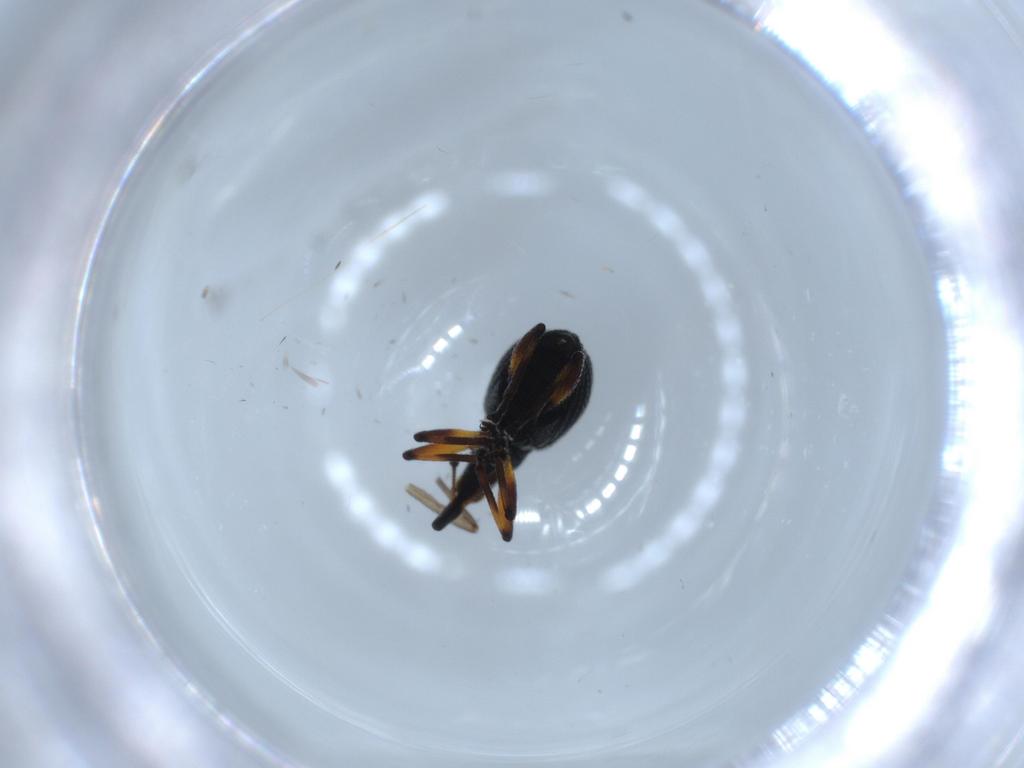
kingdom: Animalia
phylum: Arthropoda
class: Insecta
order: Coleoptera
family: Brentidae
